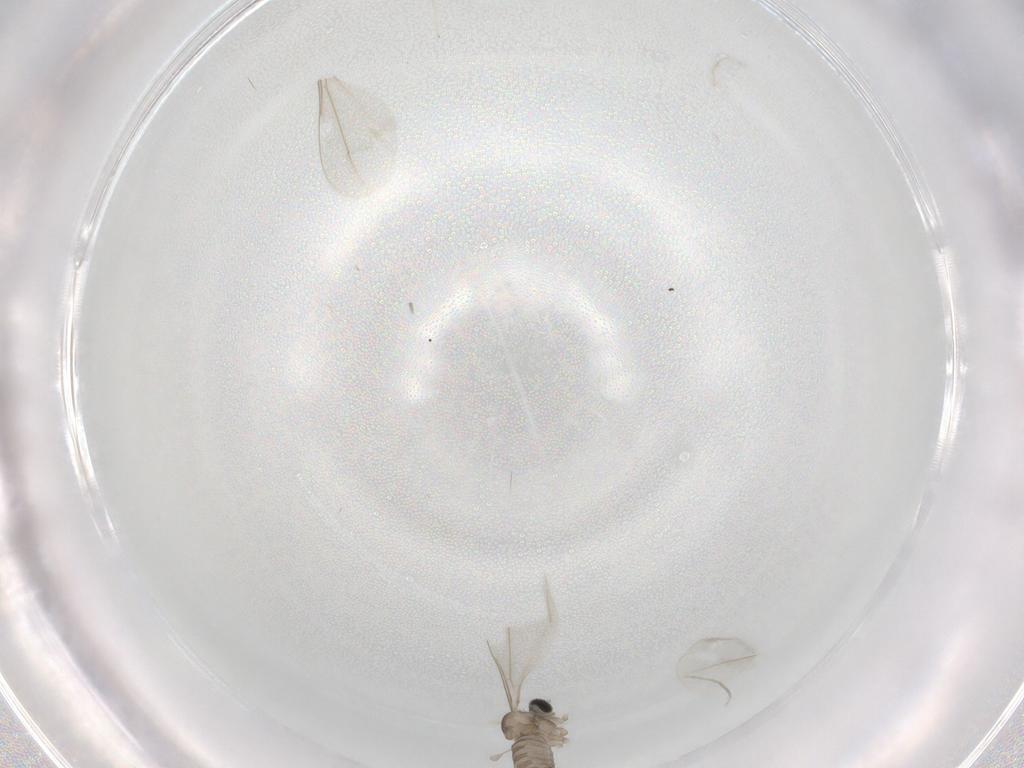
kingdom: Animalia
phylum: Arthropoda
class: Insecta
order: Diptera
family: Cecidomyiidae
